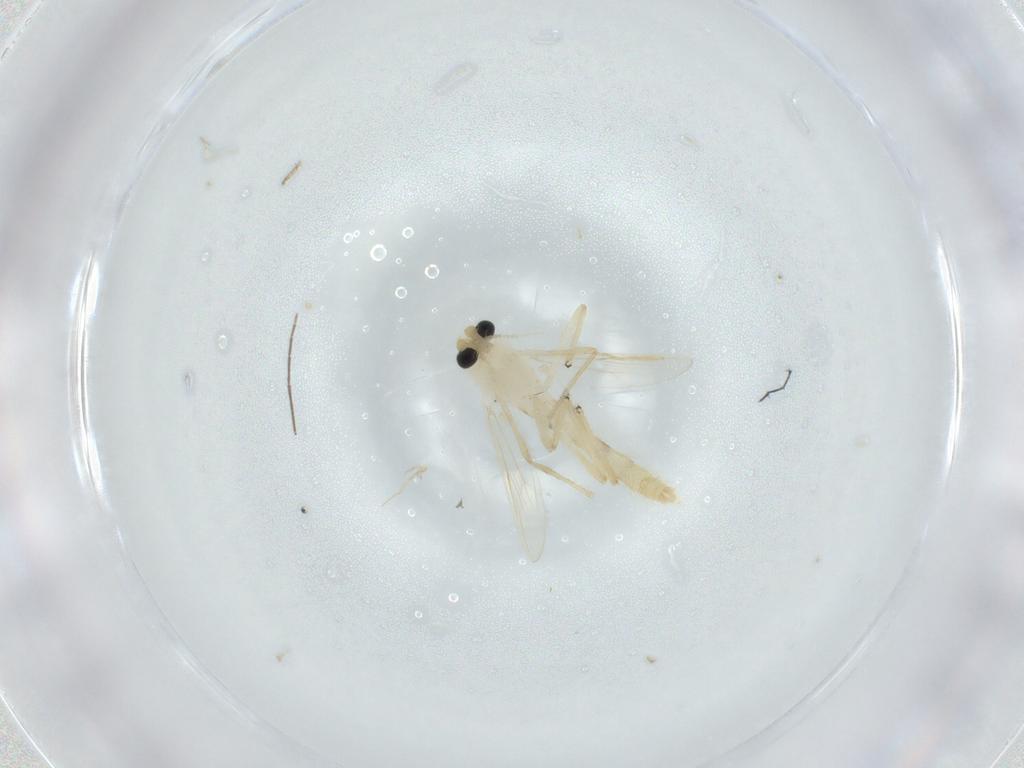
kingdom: Animalia
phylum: Arthropoda
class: Insecta
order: Diptera
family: Chironomidae
